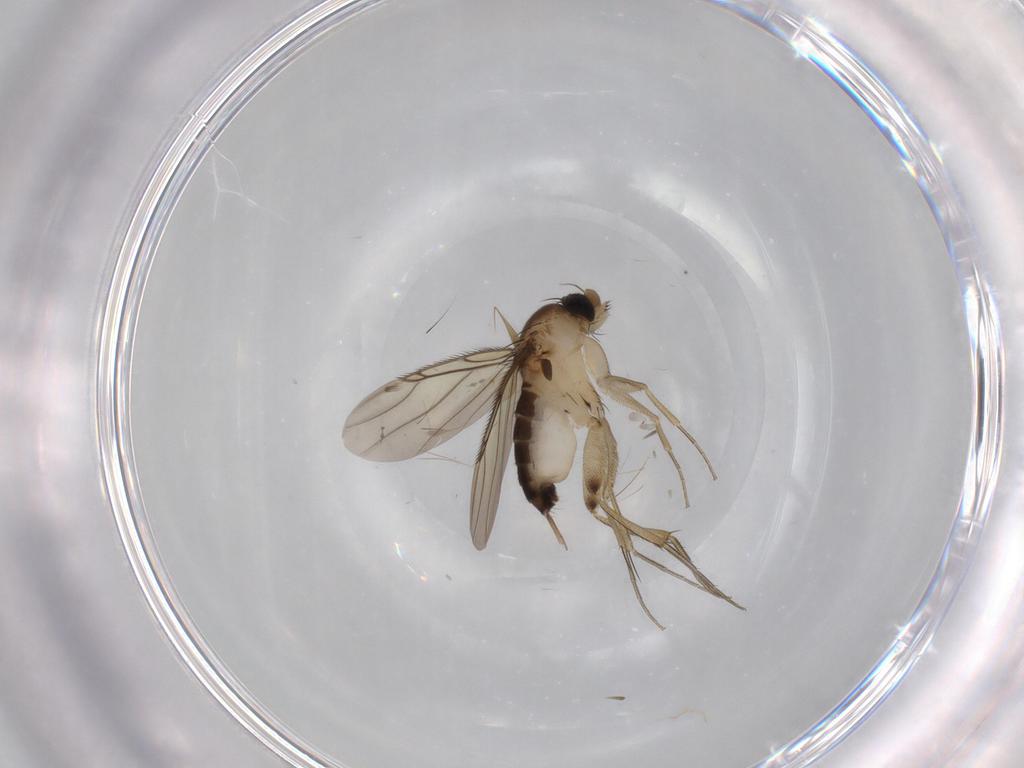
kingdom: Animalia
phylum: Arthropoda
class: Insecta
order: Diptera
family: Phoridae
